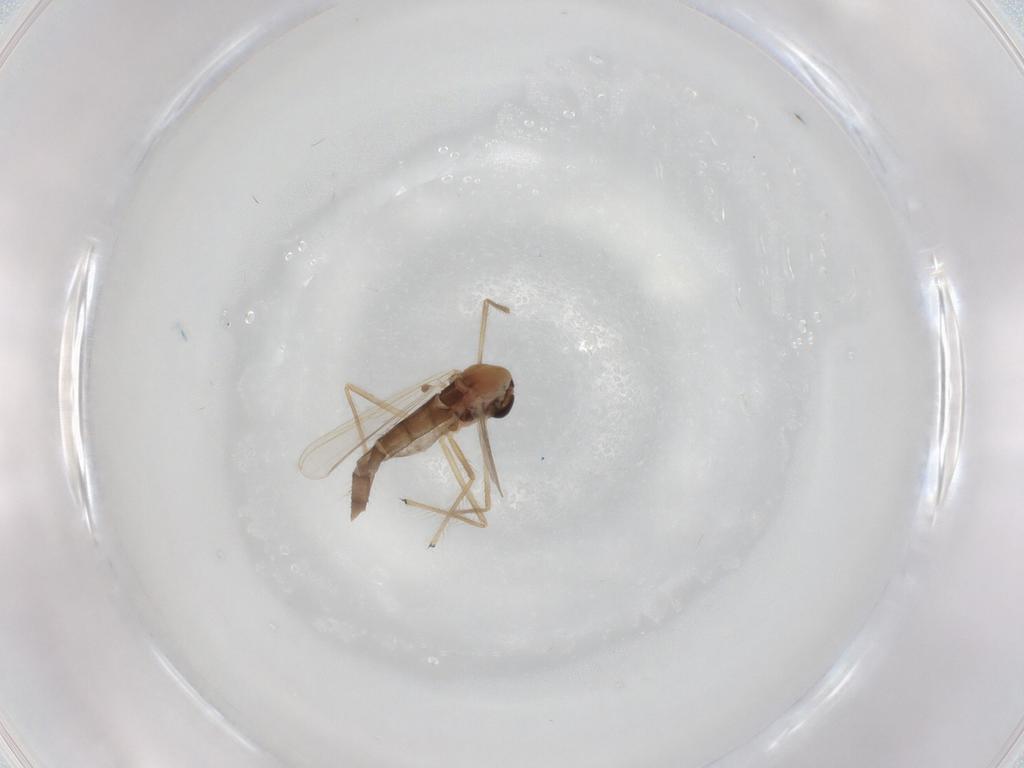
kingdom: Animalia
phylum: Arthropoda
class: Insecta
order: Diptera
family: Chironomidae
